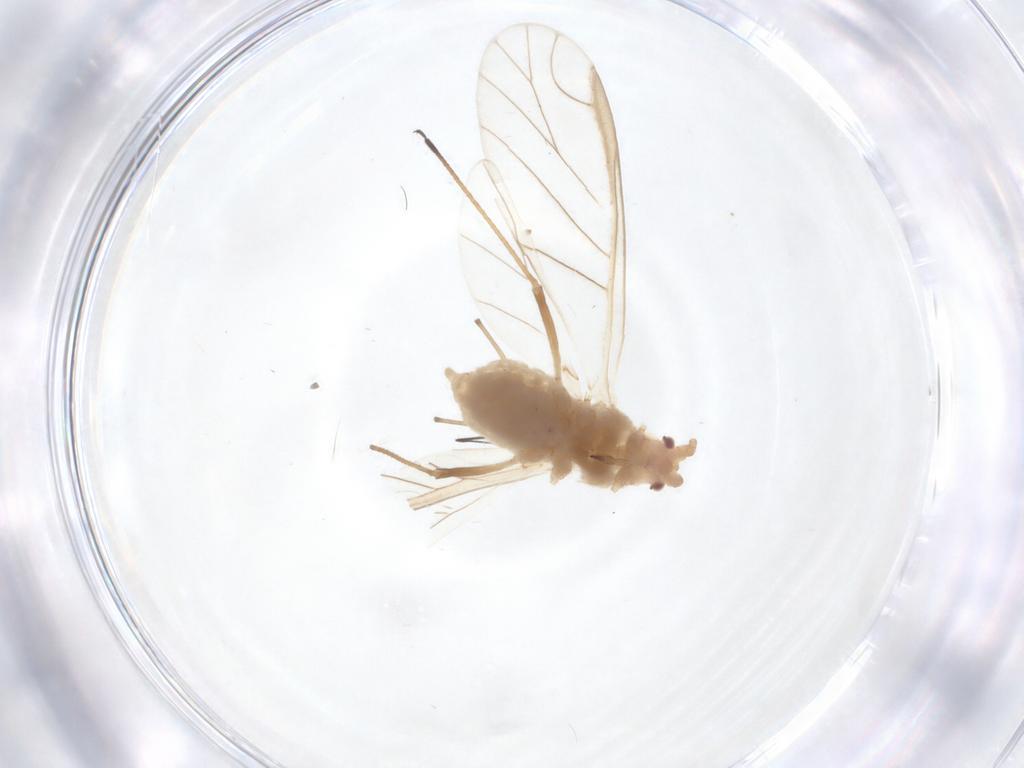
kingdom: Animalia
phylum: Arthropoda
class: Insecta
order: Hemiptera
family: Aphididae
